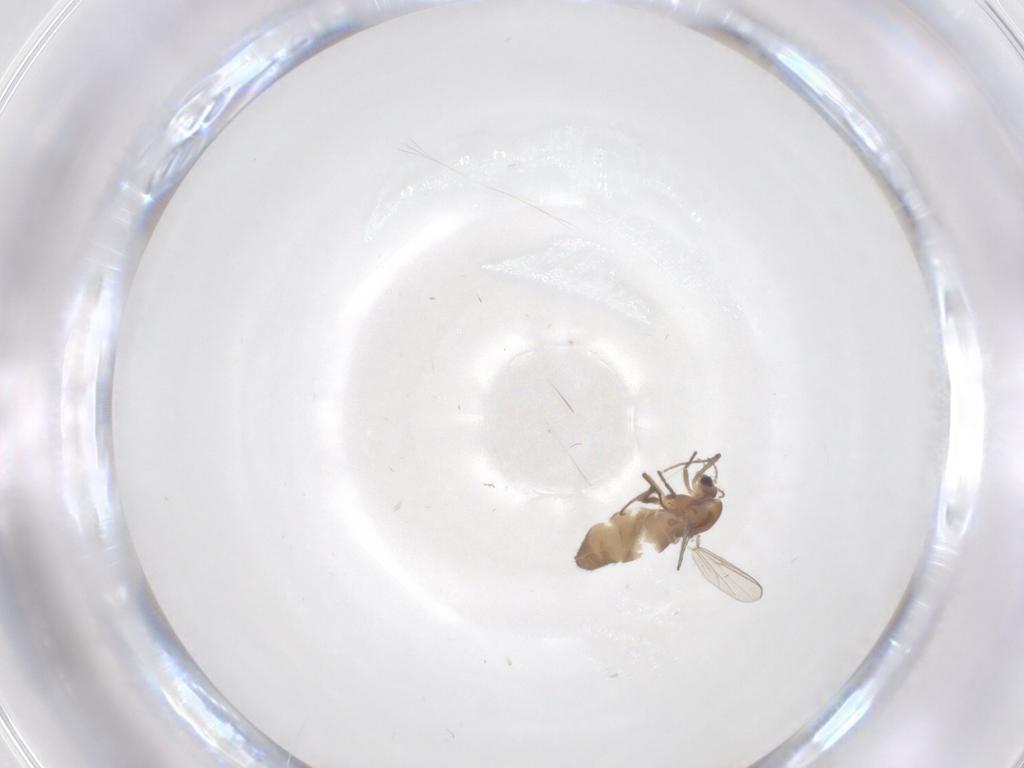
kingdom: Animalia
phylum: Arthropoda
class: Insecta
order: Diptera
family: Chironomidae
